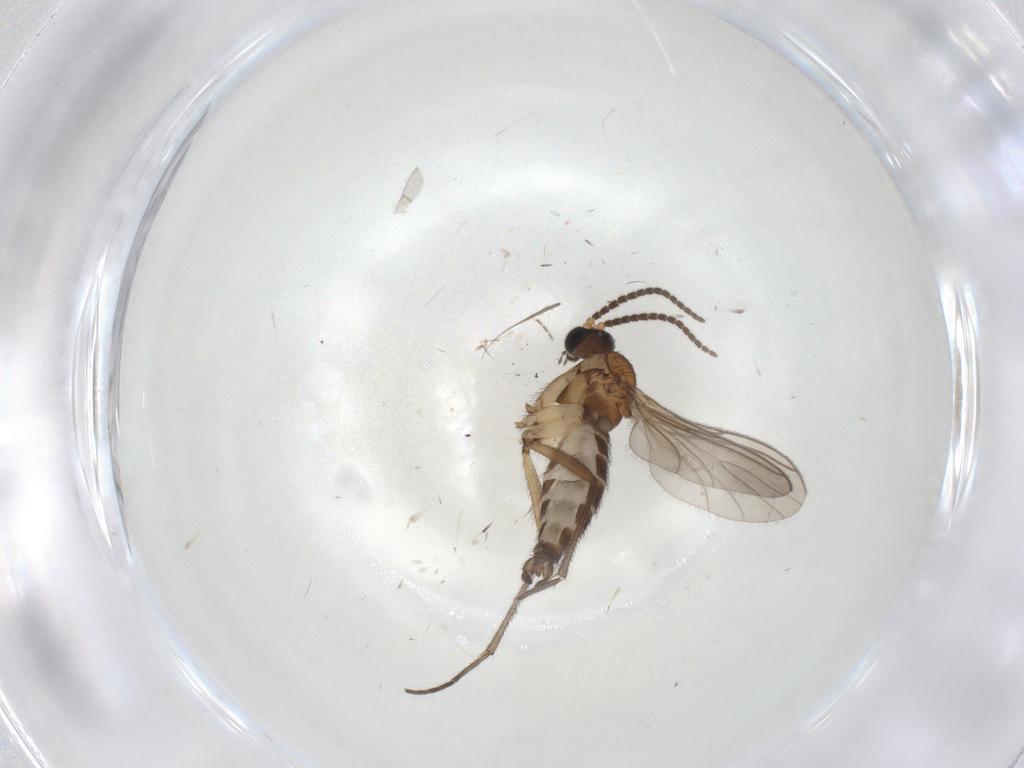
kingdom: Animalia
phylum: Arthropoda
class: Insecta
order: Diptera
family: Sciaridae
